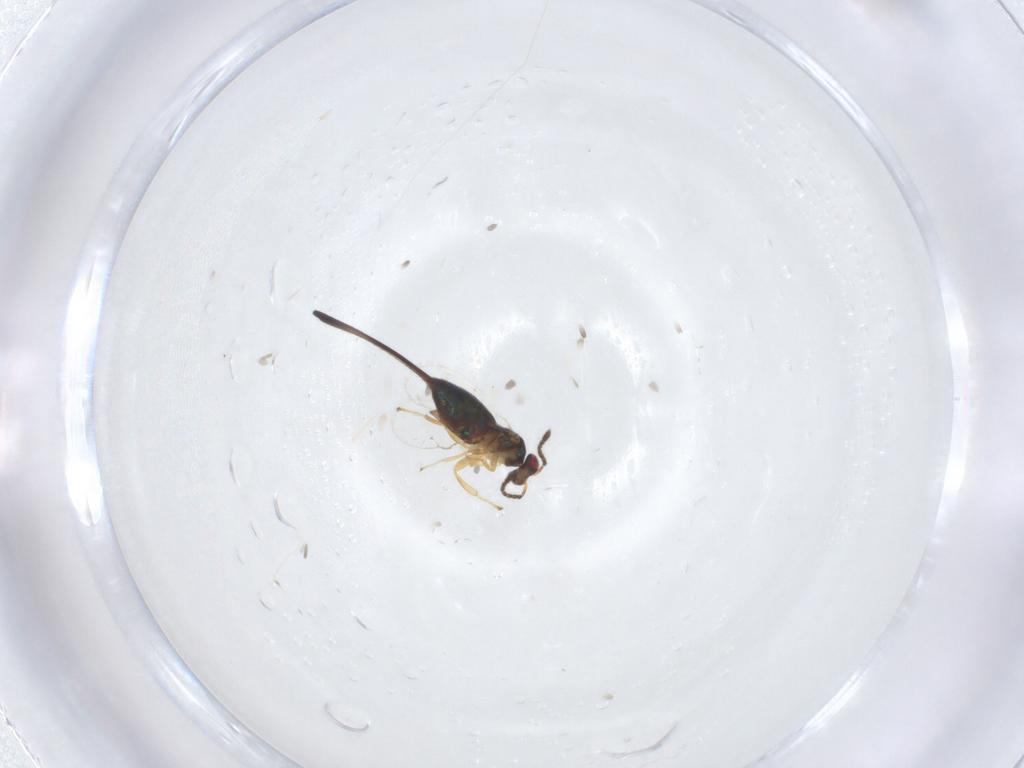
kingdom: Animalia
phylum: Arthropoda
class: Insecta
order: Hymenoptera
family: Pteromalidae
